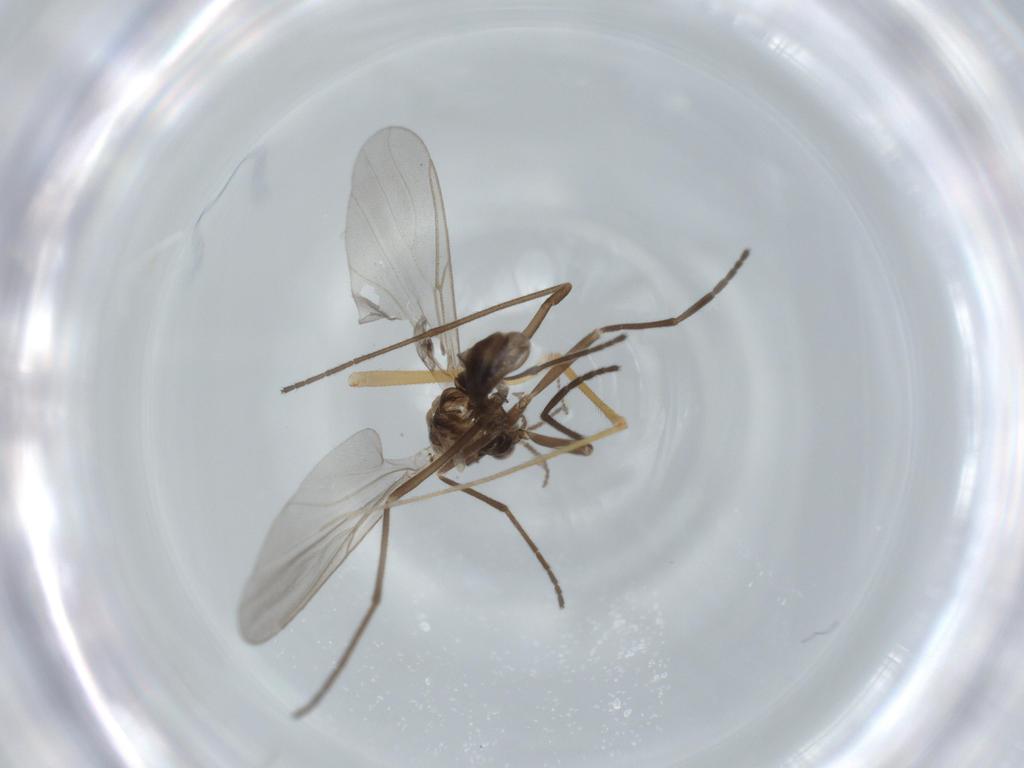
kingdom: Animalia
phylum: Arthropoda
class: Insecta
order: Diptera
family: Cecidomyiidae
